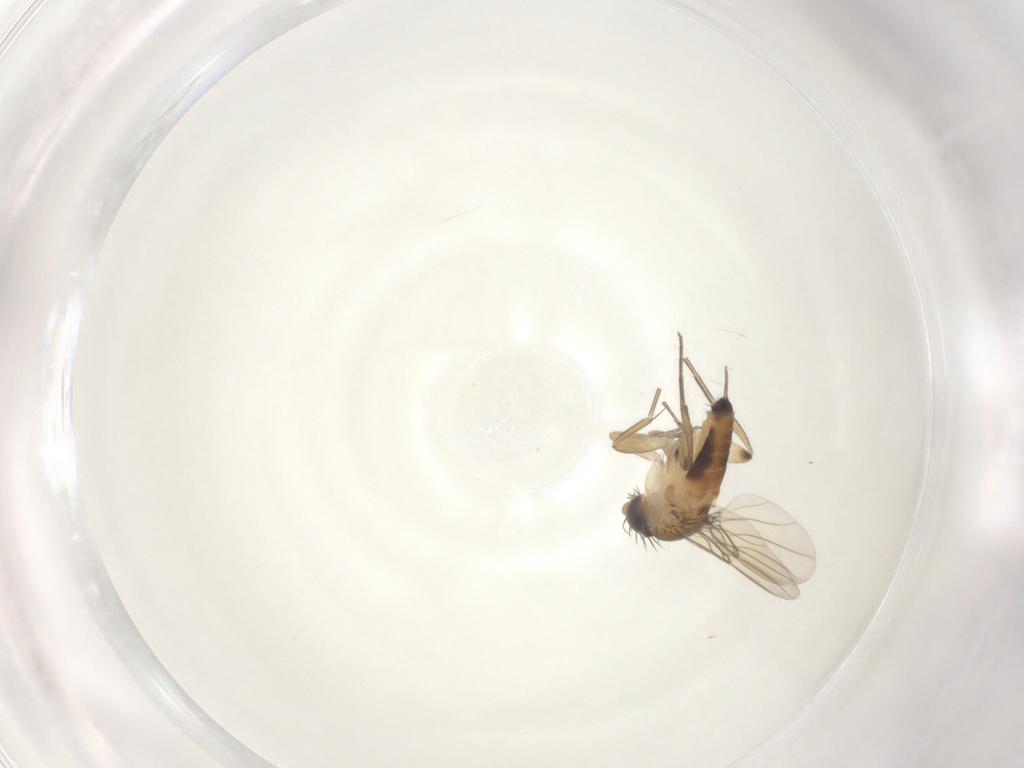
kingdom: Animalia
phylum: Arthropoda
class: Insecta
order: Diptera
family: Phoridae
